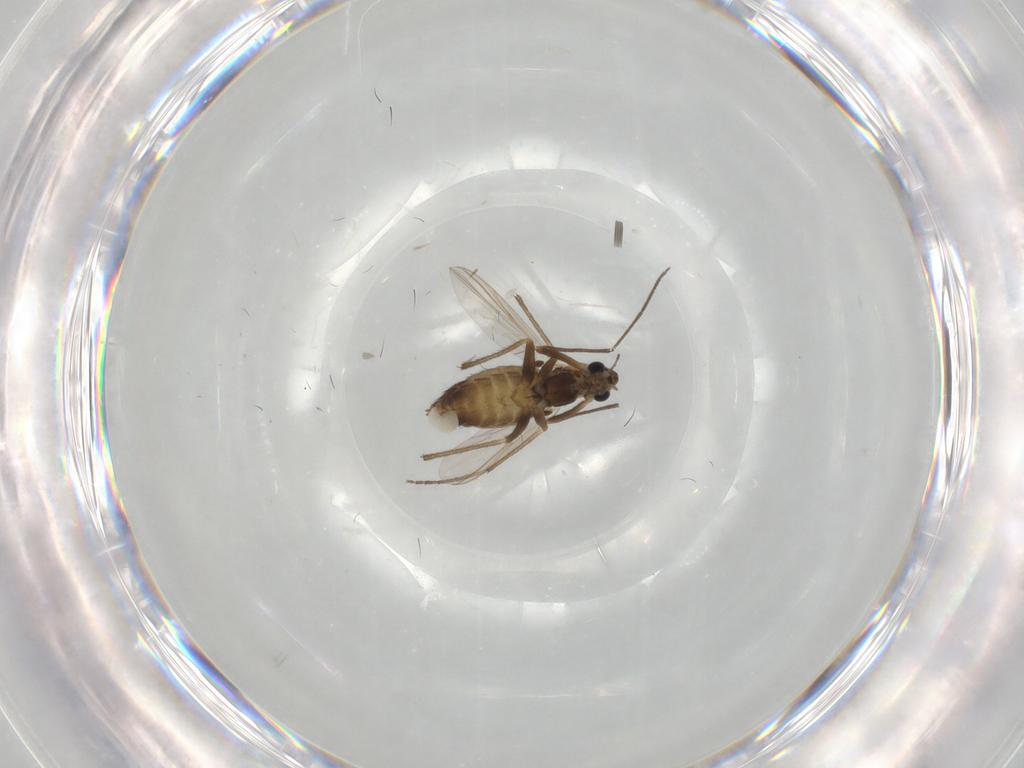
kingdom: Animalia
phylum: Arthropoda
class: Insecta
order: Diptera
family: Chironomidae
